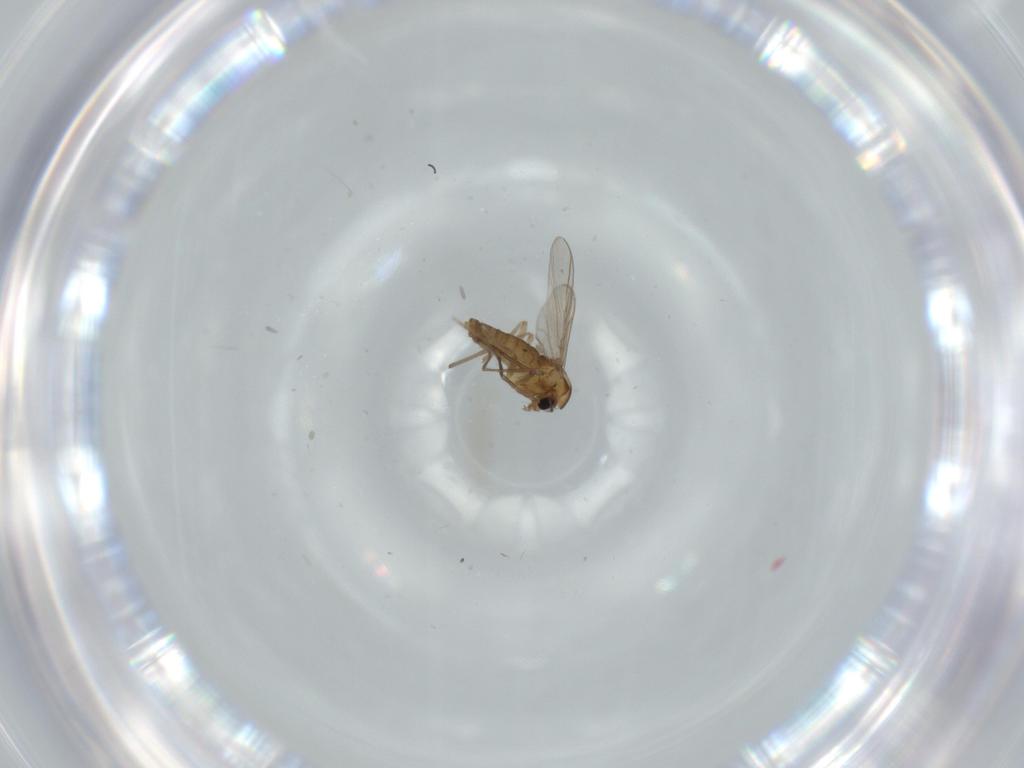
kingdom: Animalia
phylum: Arthropoda
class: Insecta
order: Diptera
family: Chironomidae
